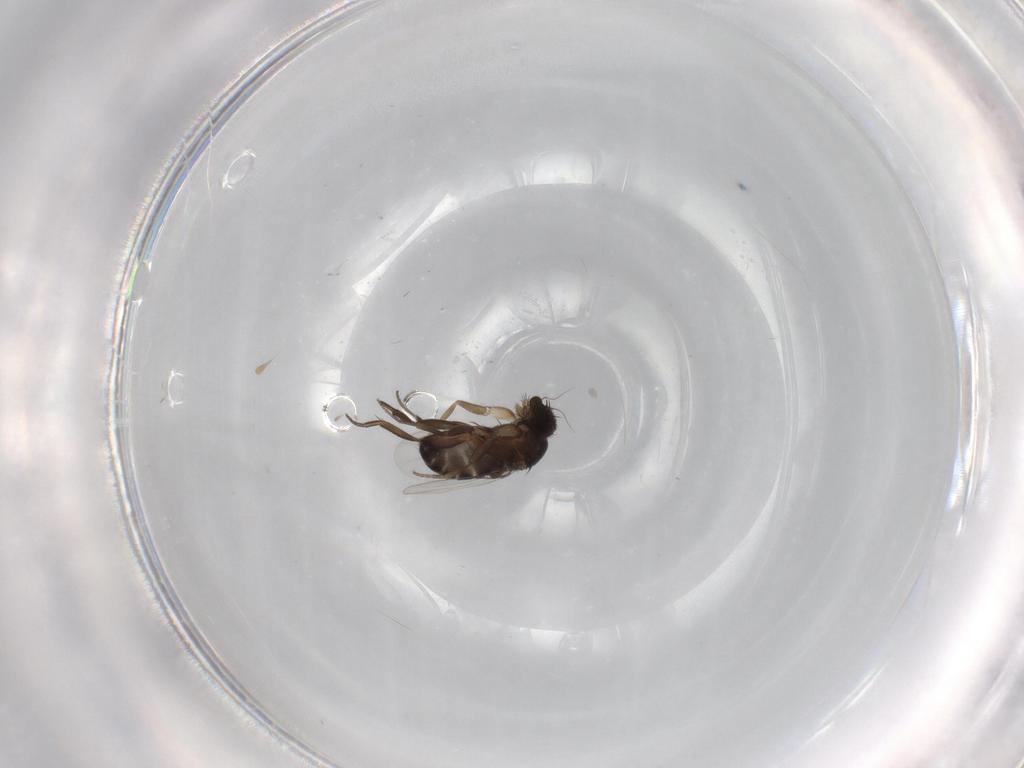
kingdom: Animalia
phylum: Arthropoda
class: Insecta
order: Diptera
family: Phoridae
